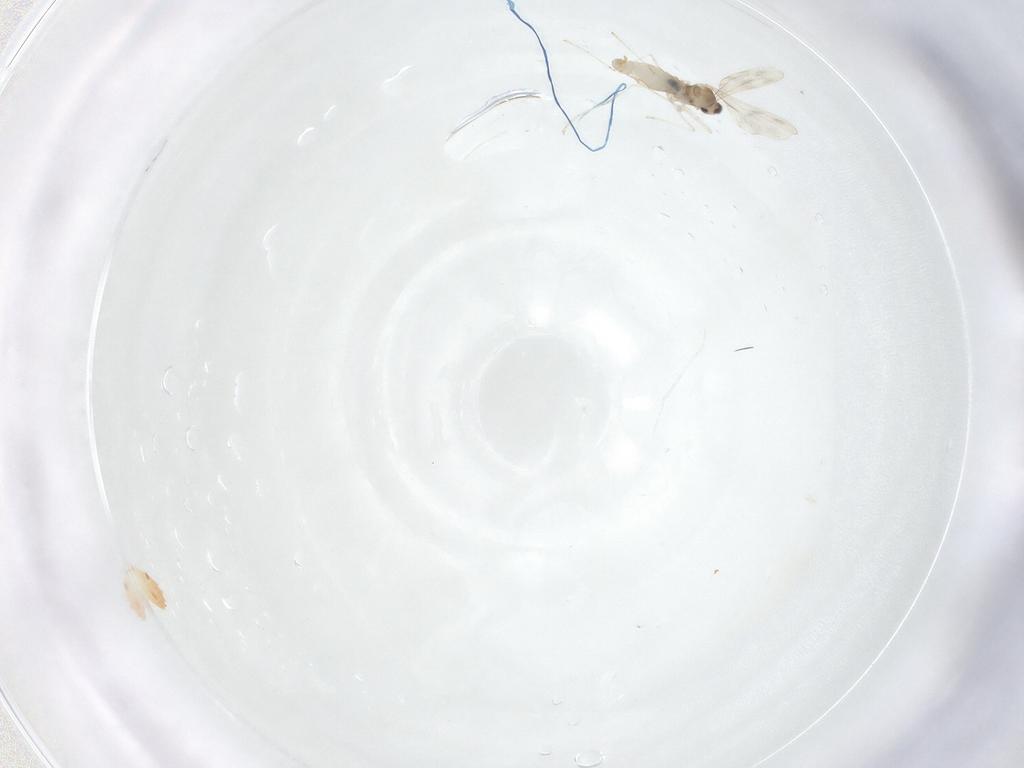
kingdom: Animalia
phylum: Arthropoda
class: Insecta
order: Diptera
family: Cecidomyiidae
